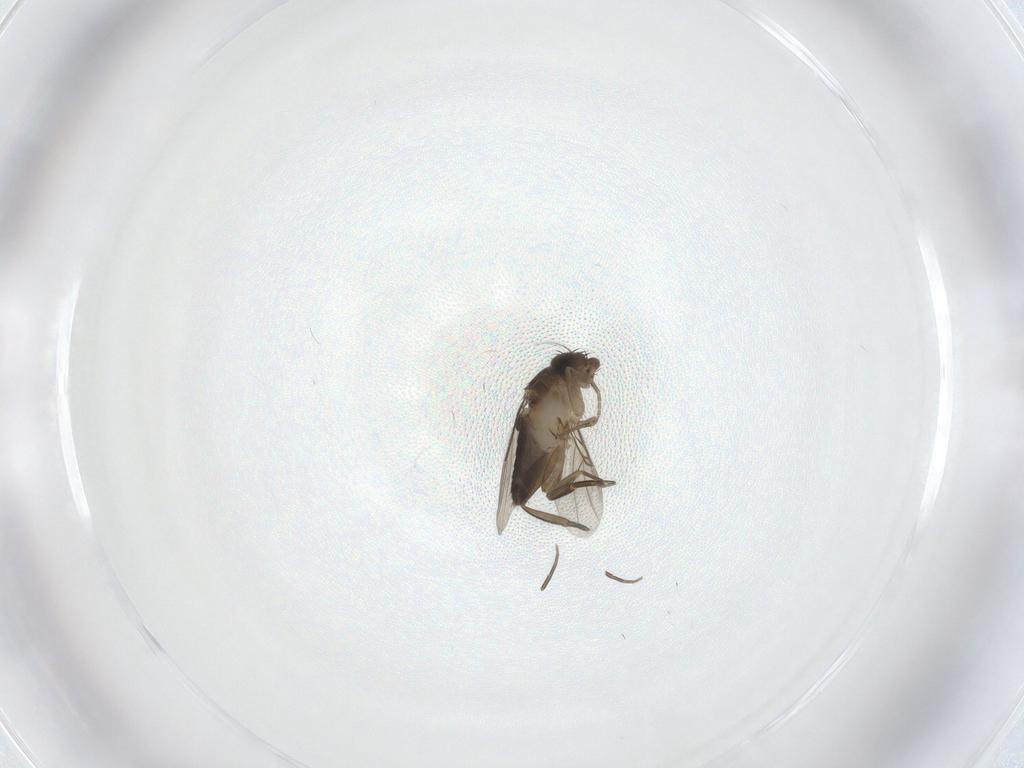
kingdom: Animalia
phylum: Arthropoda
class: Insecta
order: Diptera
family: Phoridae
